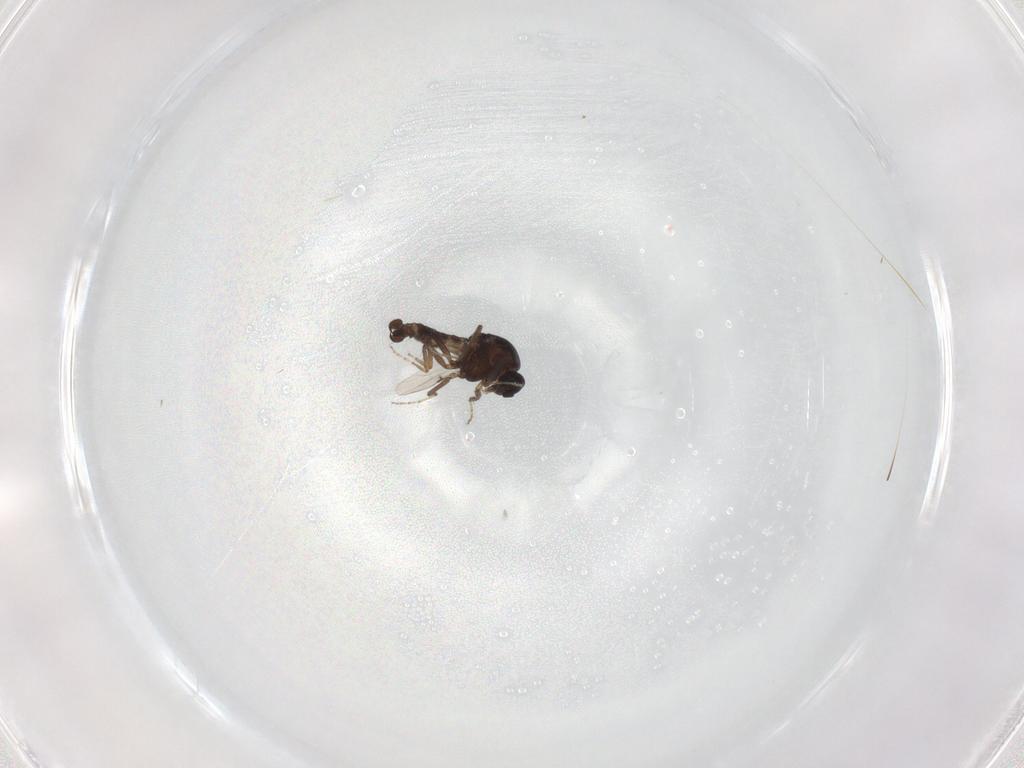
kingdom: Animalia
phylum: Arthropoda
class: Insecta
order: Diptera
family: Ceratopogonidae
